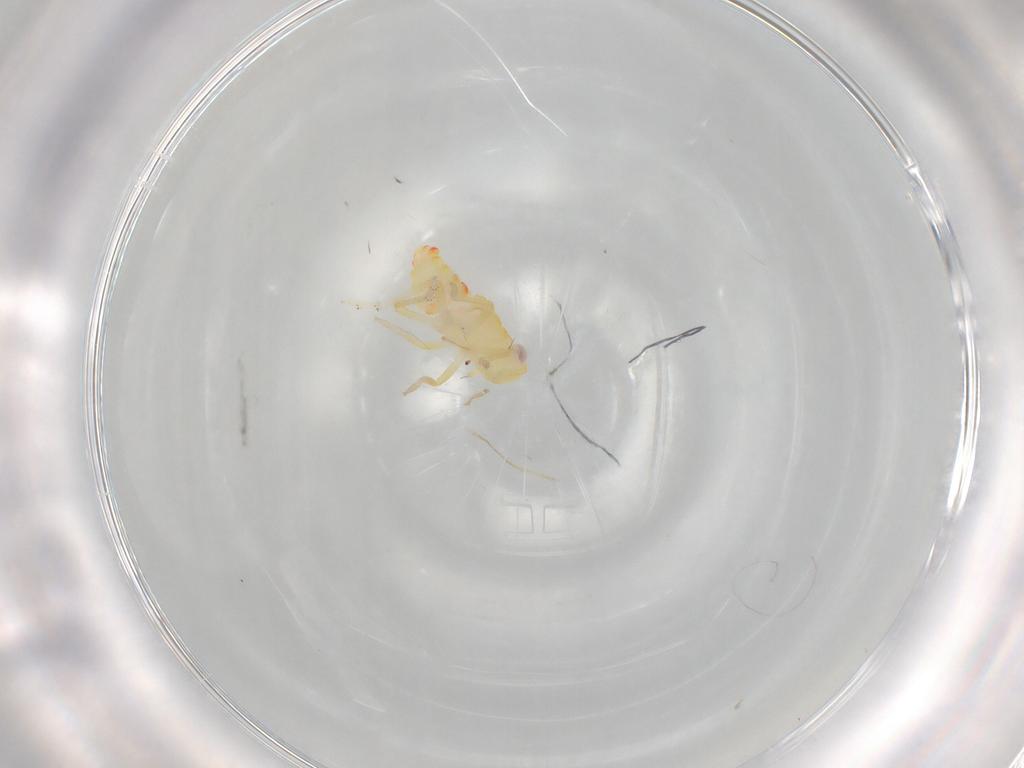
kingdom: Animalia
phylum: Arthropoda
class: Insecta
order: Hemiptera
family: Tropiduchidae
